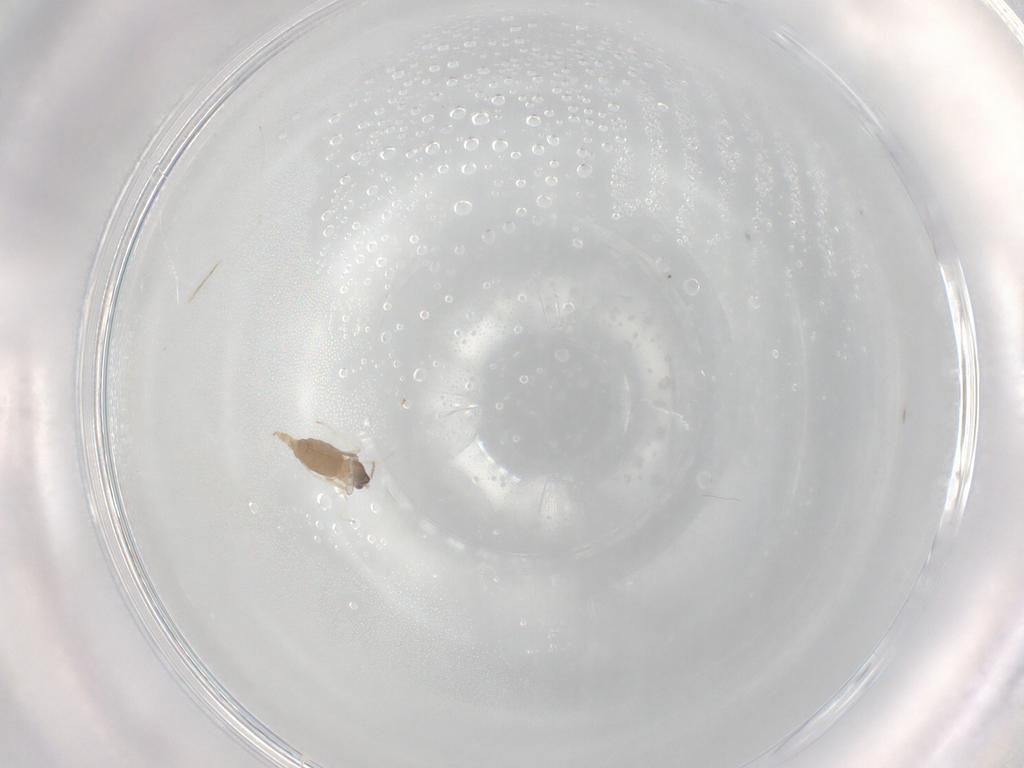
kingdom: Animalia
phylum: Arthropoda
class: Insecta
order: Diptera
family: Cecidomyiidae
